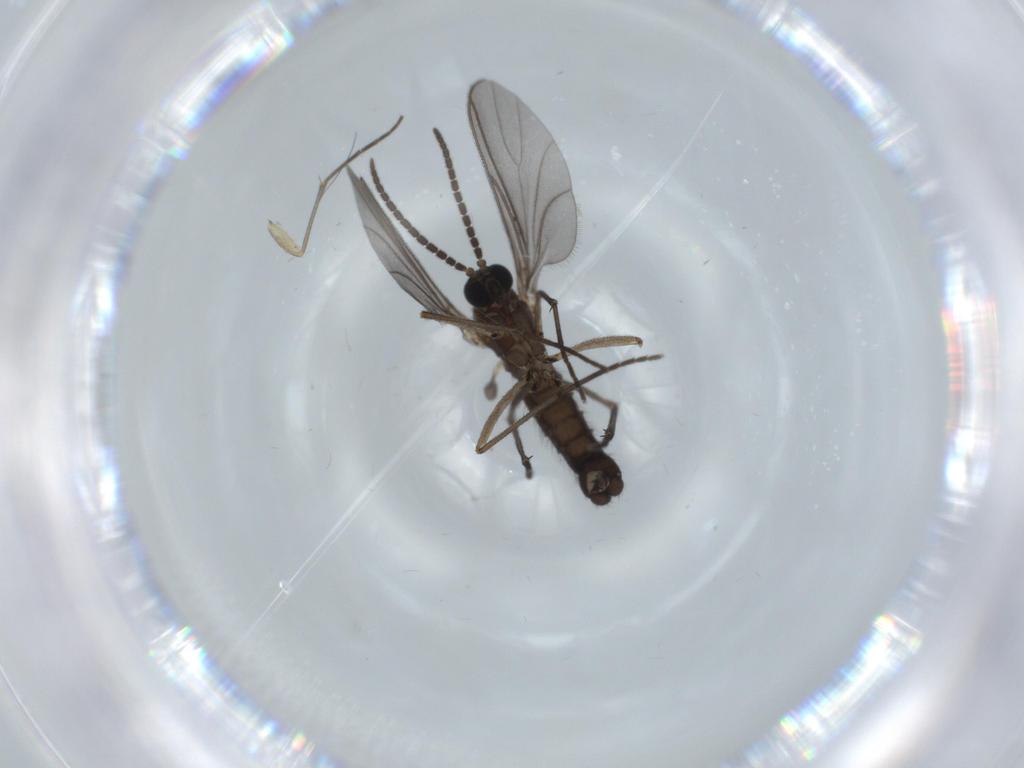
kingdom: Animalia
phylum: Arthropoda
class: Insecta
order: Diptera
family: Sciaridae
